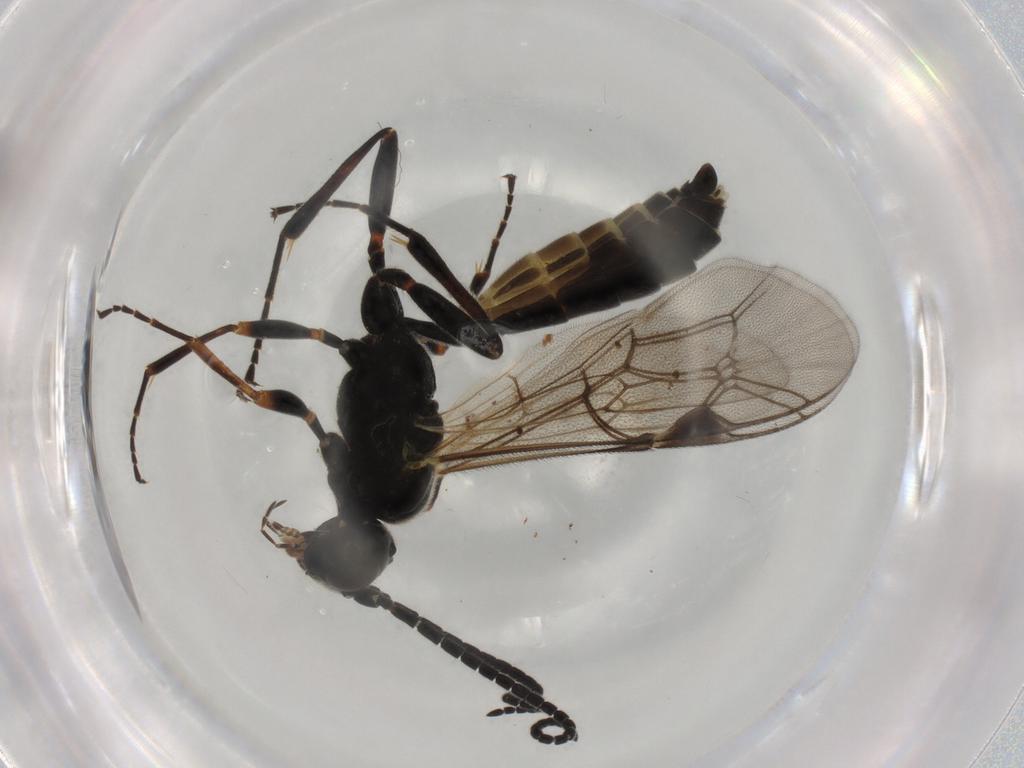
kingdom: Animalia
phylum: Arthropoda
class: Insecta
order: Hymenoptera
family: Ichneumonidae
